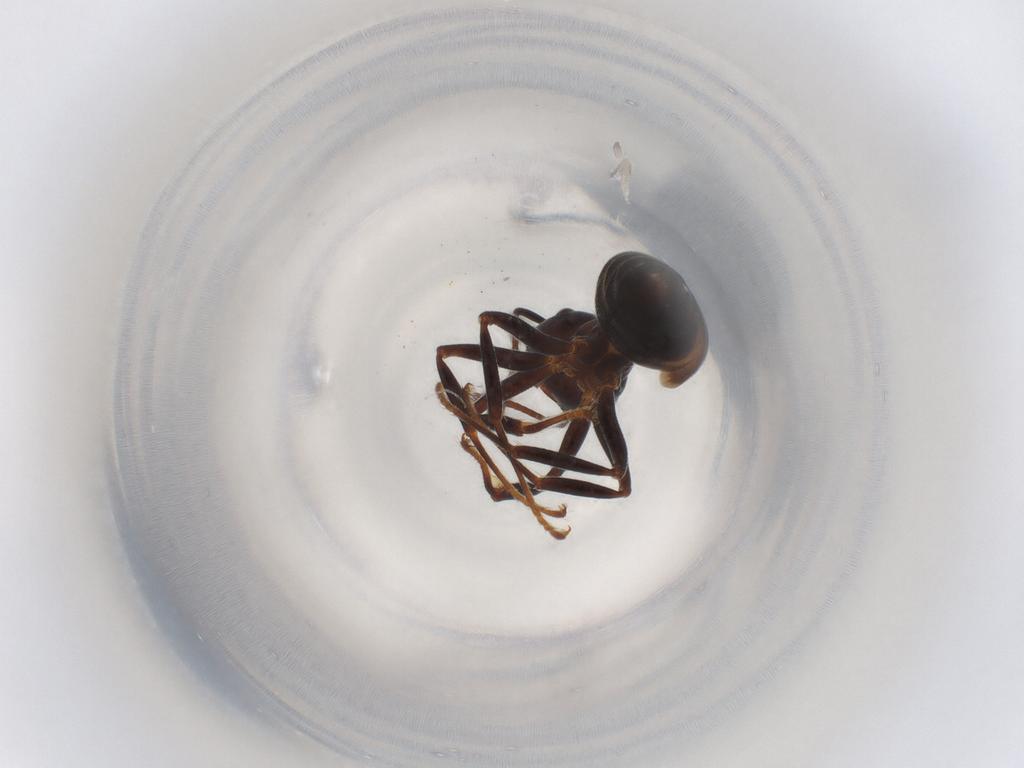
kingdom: Animalia
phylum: Arthropoda
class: Insecta
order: Hymenoptera
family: Formicidae
